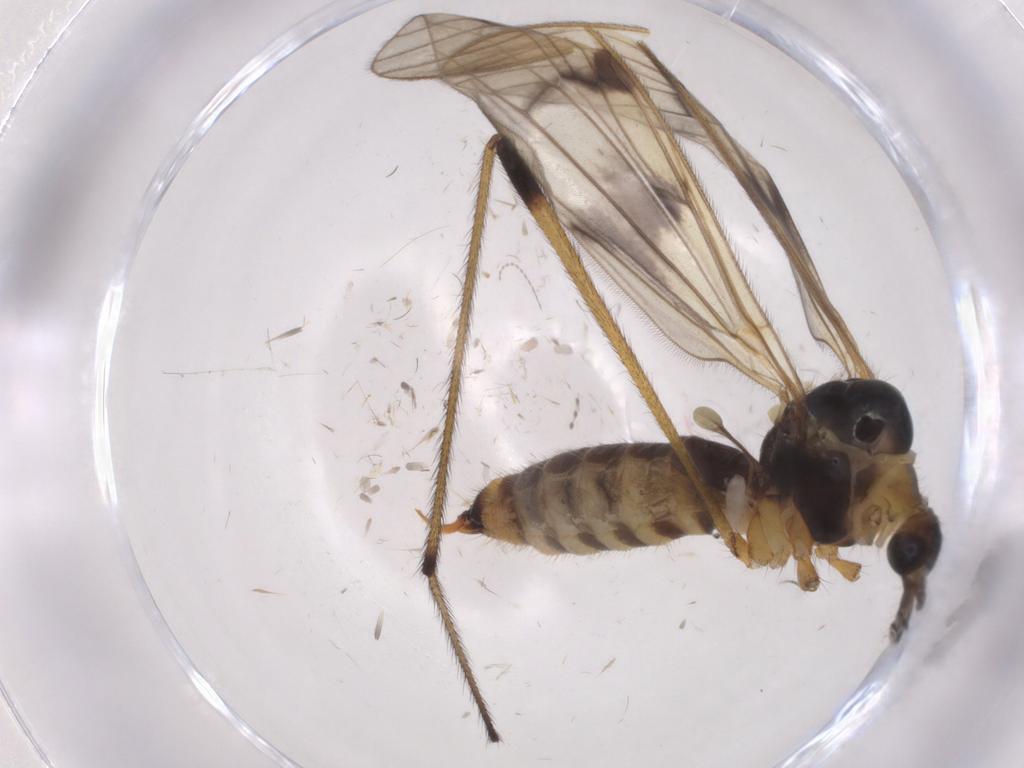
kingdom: Animalia
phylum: Arthropoda
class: Insecta
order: Diptera
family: Limoniidae
